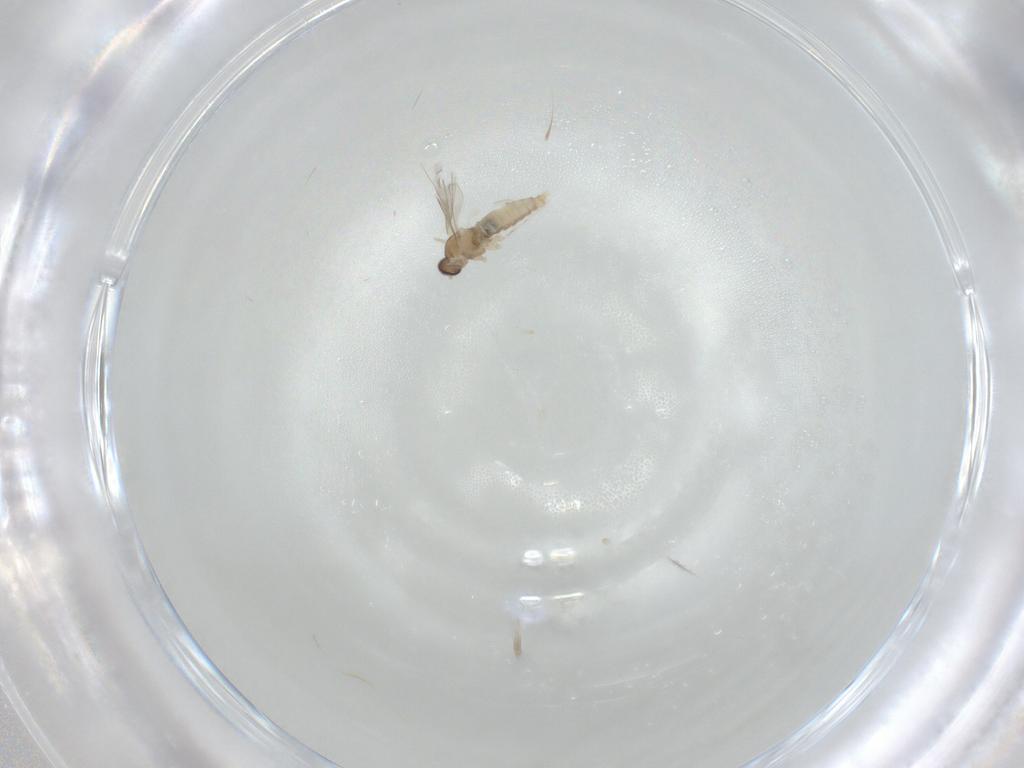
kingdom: Animalia
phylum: Arthropoda
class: Insecta
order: Diptera
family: Cecidomyiidae
